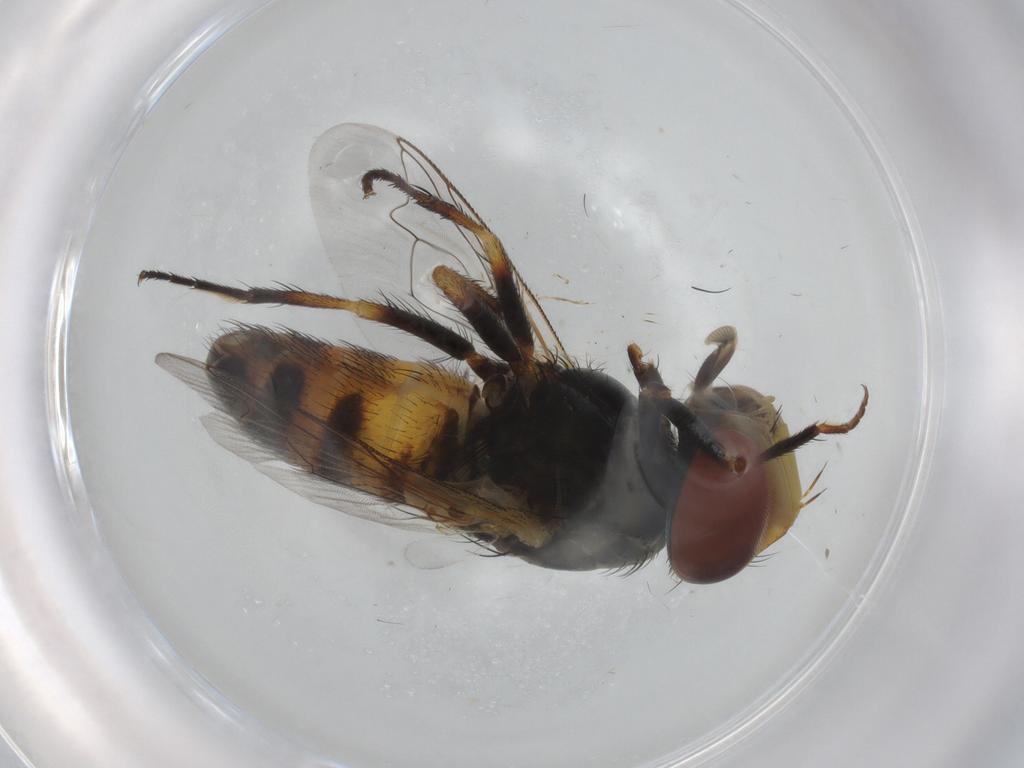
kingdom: Animalia
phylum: Arthropoda
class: Insecta
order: Diptera
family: Sarcophagidae
